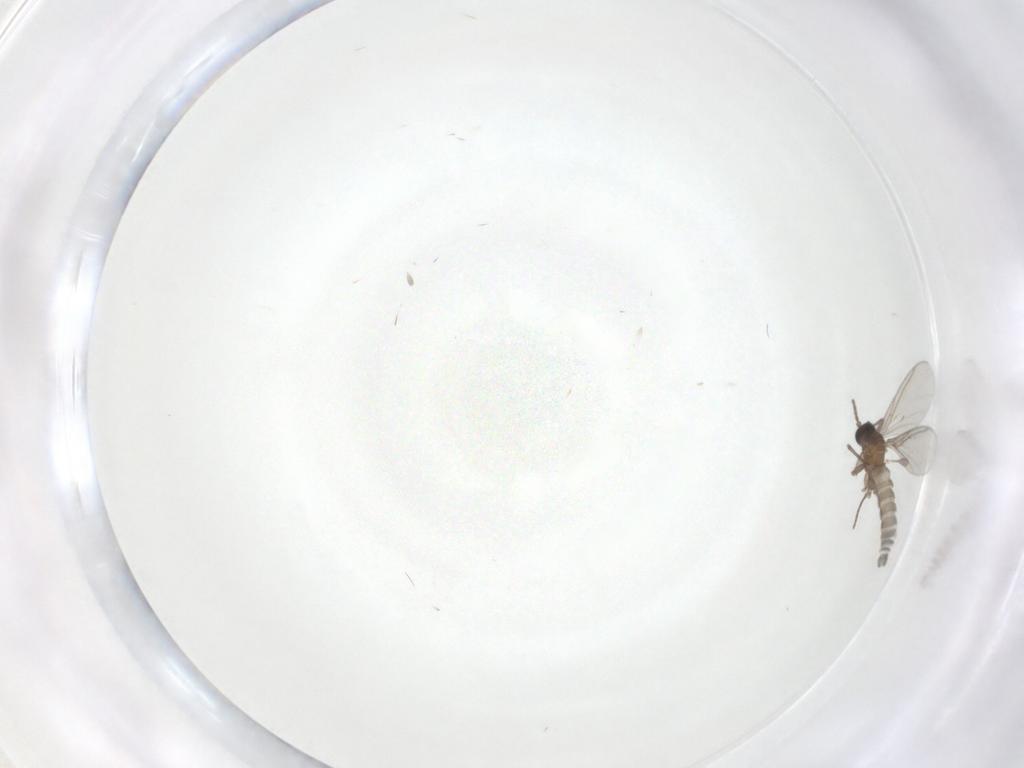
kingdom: Animalia
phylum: Arthropoda
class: Insecta
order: Diptera
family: Sciaridae
